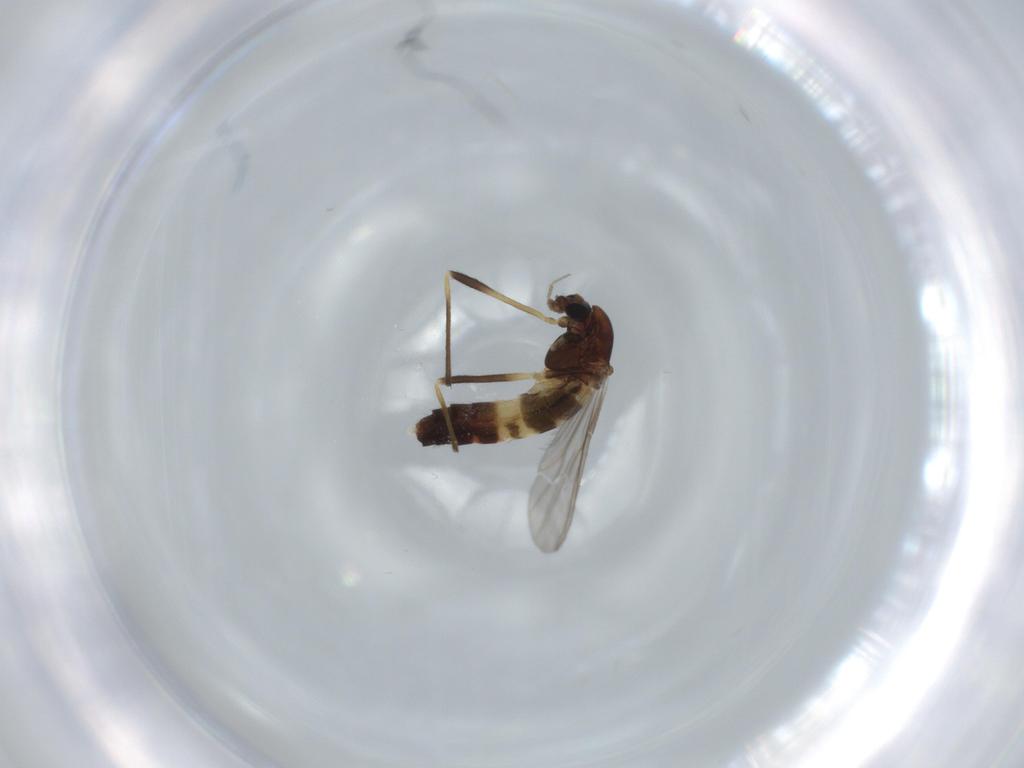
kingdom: Animalia
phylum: Arthropoda
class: Insecta
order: Diptera
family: Chironomidae
